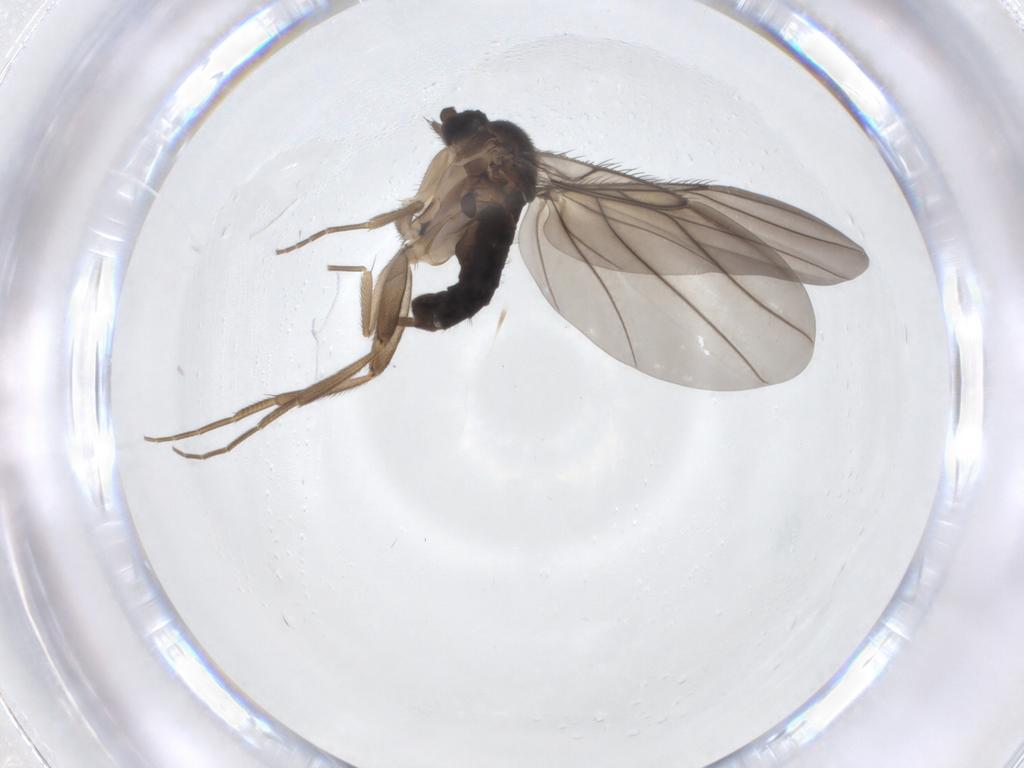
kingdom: Animalia
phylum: Arthropoda
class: Insecta
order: Diptera
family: Phoridae
